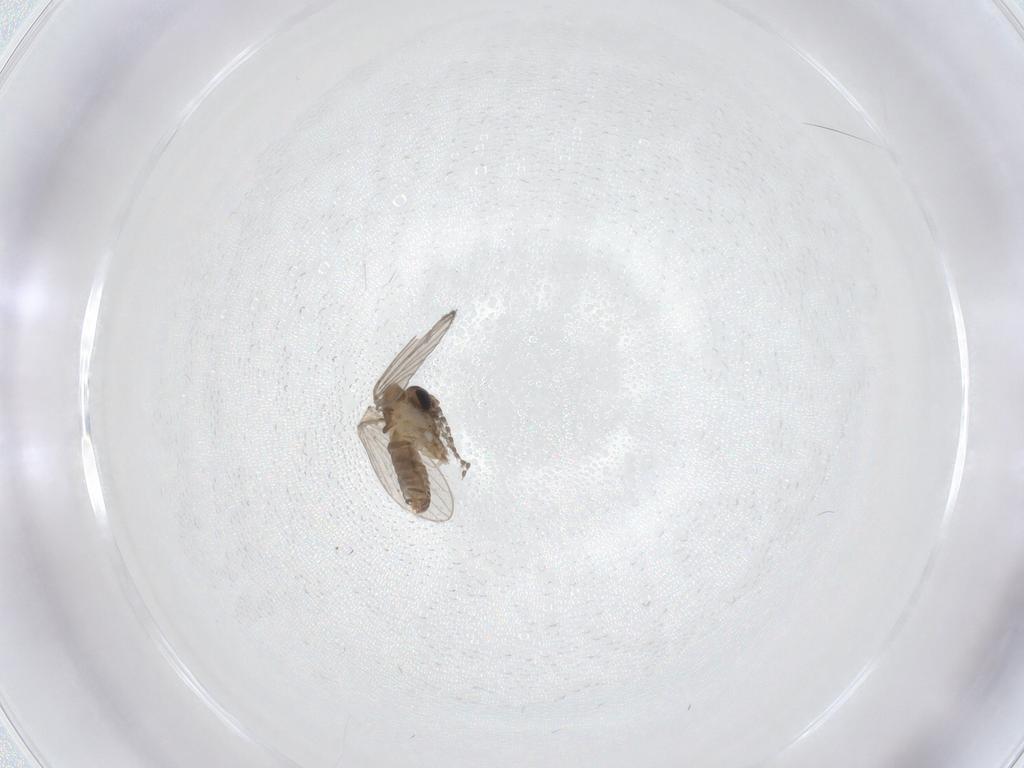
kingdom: Animalia
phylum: Arthropoda
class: Insecta
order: Diptera
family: Psychodidae
